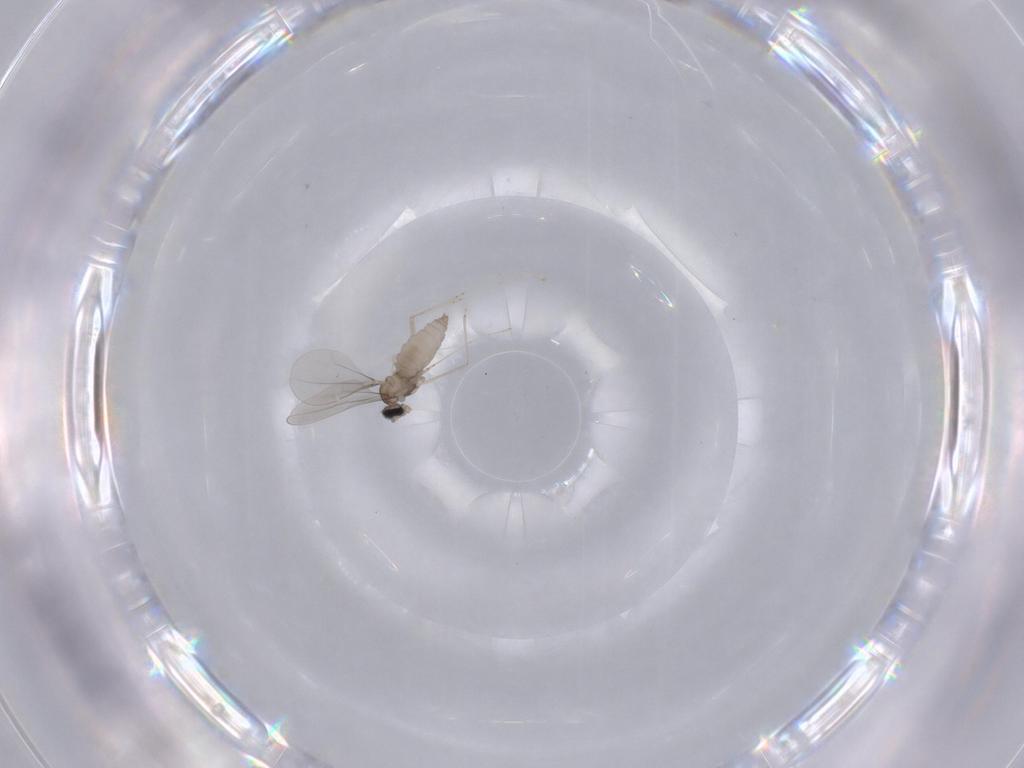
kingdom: Animalia
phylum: Arthropoda
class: Insecta
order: Diptera
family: Cecidomyiidae
